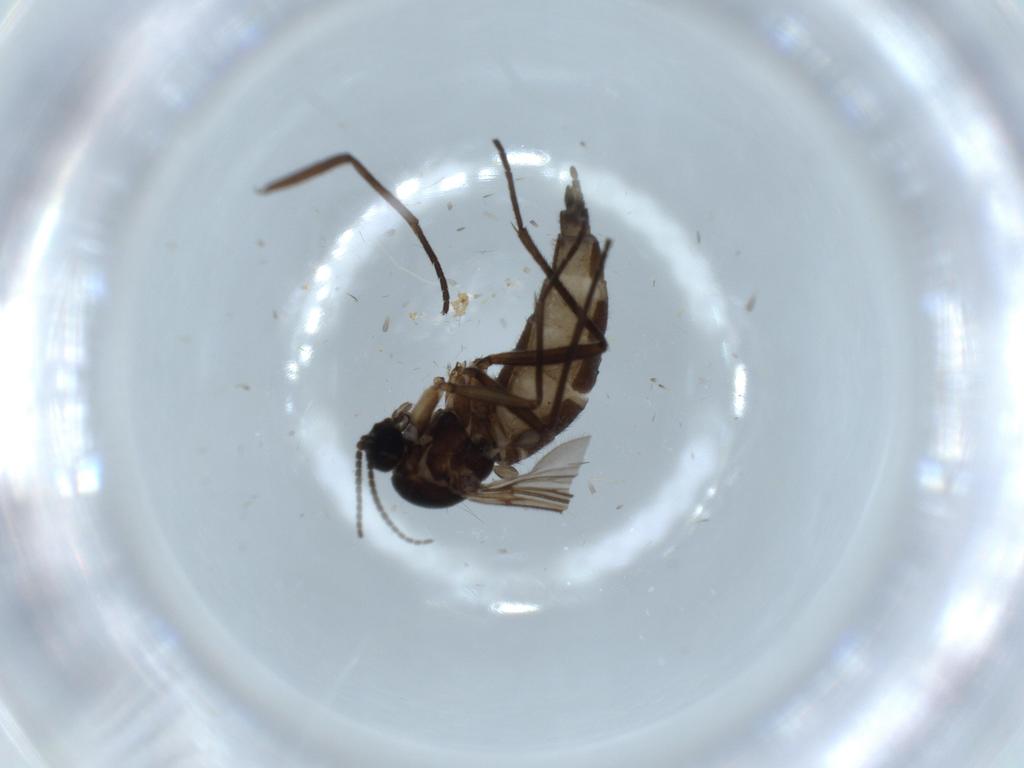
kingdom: Animalia
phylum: Arthropoda
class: Insecta
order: Diptera
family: Sciaridae
